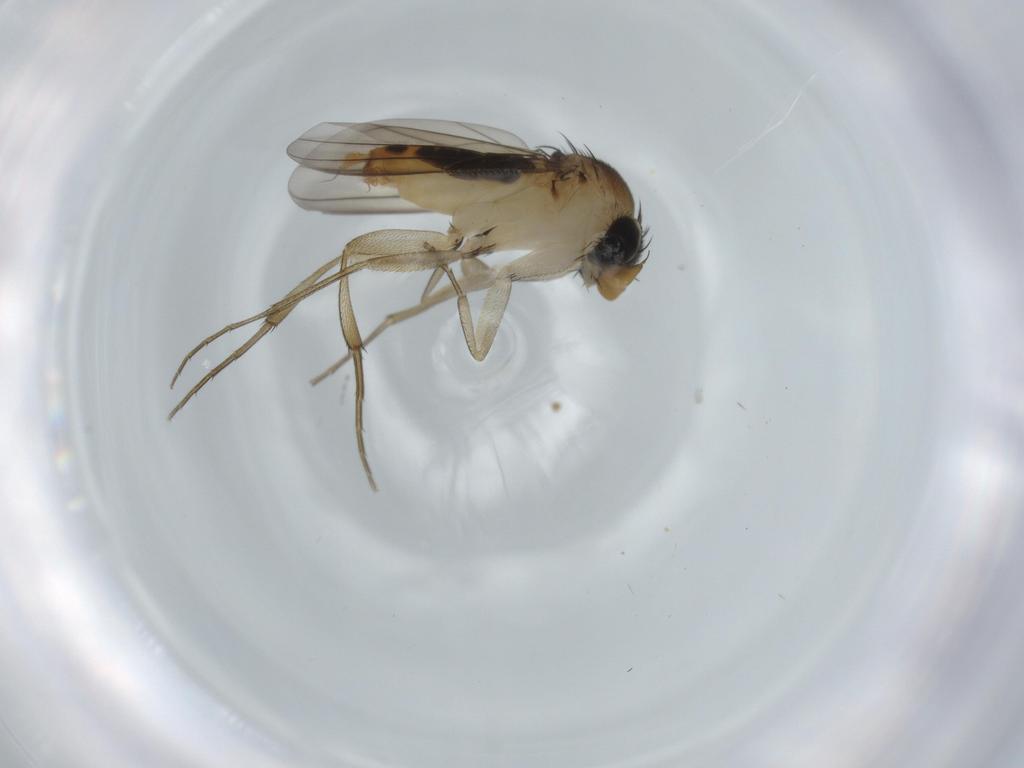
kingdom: Animalia
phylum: Arthropoda
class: Insecta
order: Diptera
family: Phoridae
